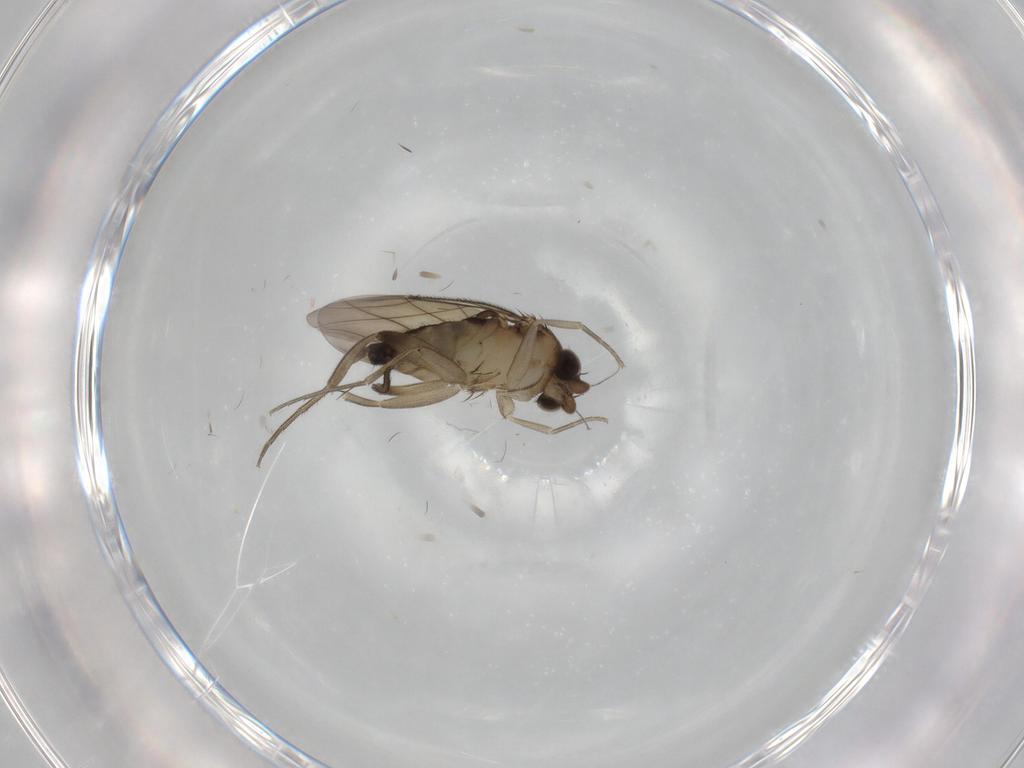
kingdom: Animalia
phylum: Arthropoda
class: Insecta
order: Diptera
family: Phoridae
